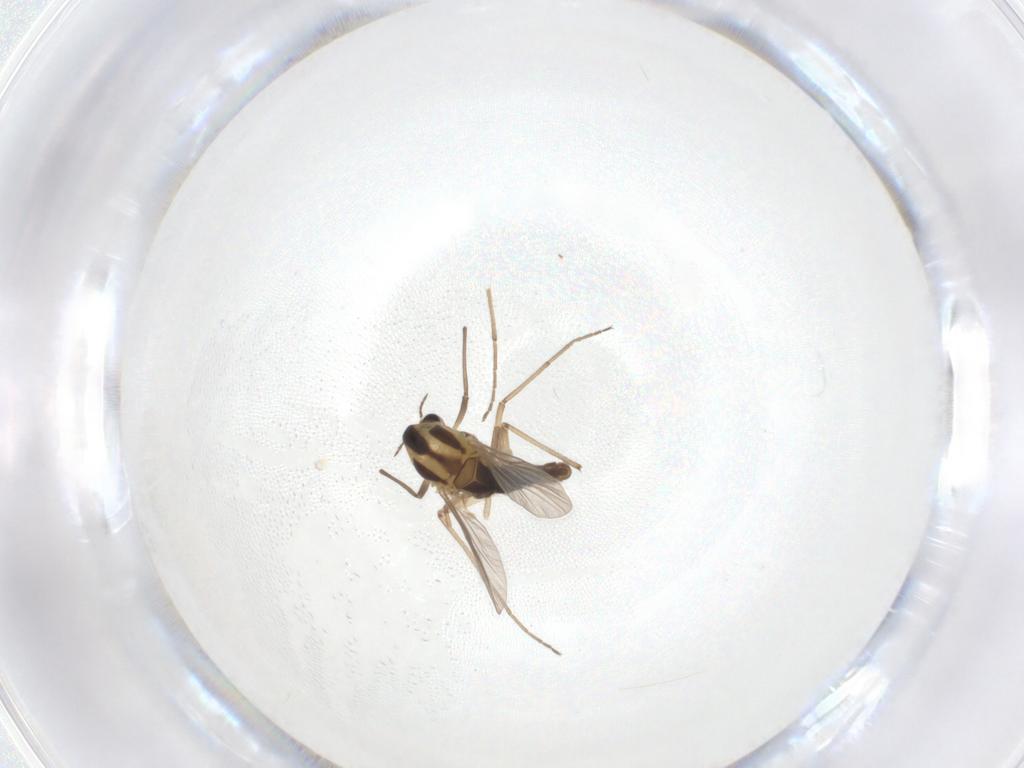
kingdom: Animalia
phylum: Arthropoda
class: Insecta
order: Diptera
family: Chironomidae
